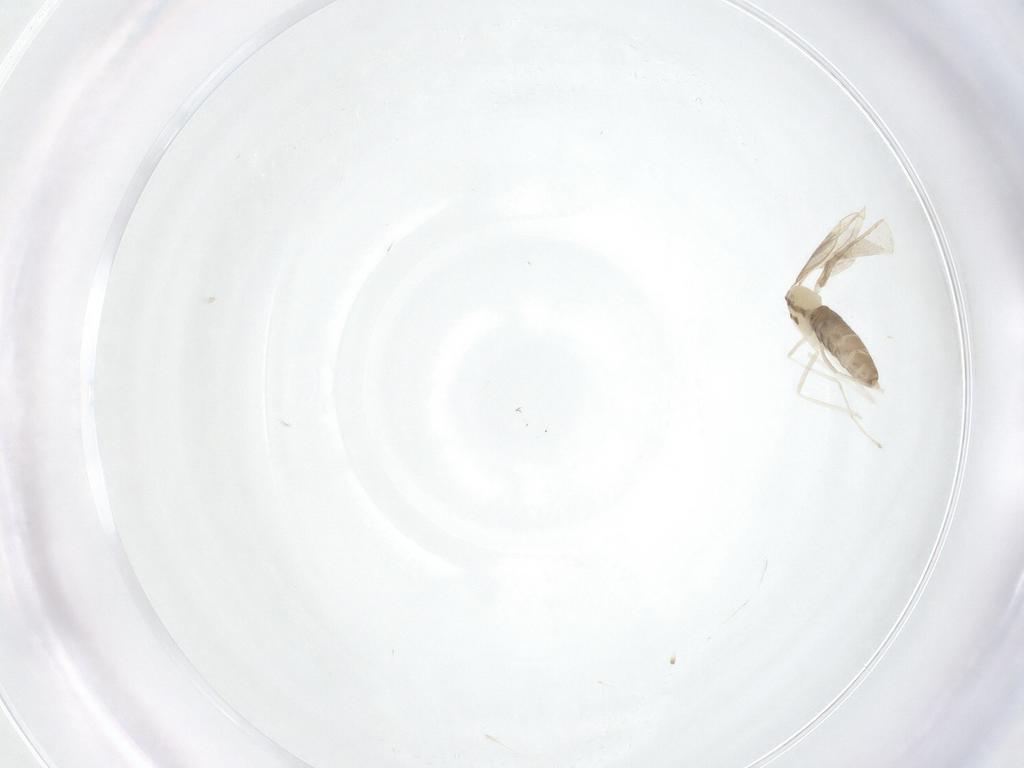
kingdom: Animalia
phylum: Arthropoda
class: Insecta
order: Diptera
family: Cecidomyiidae
